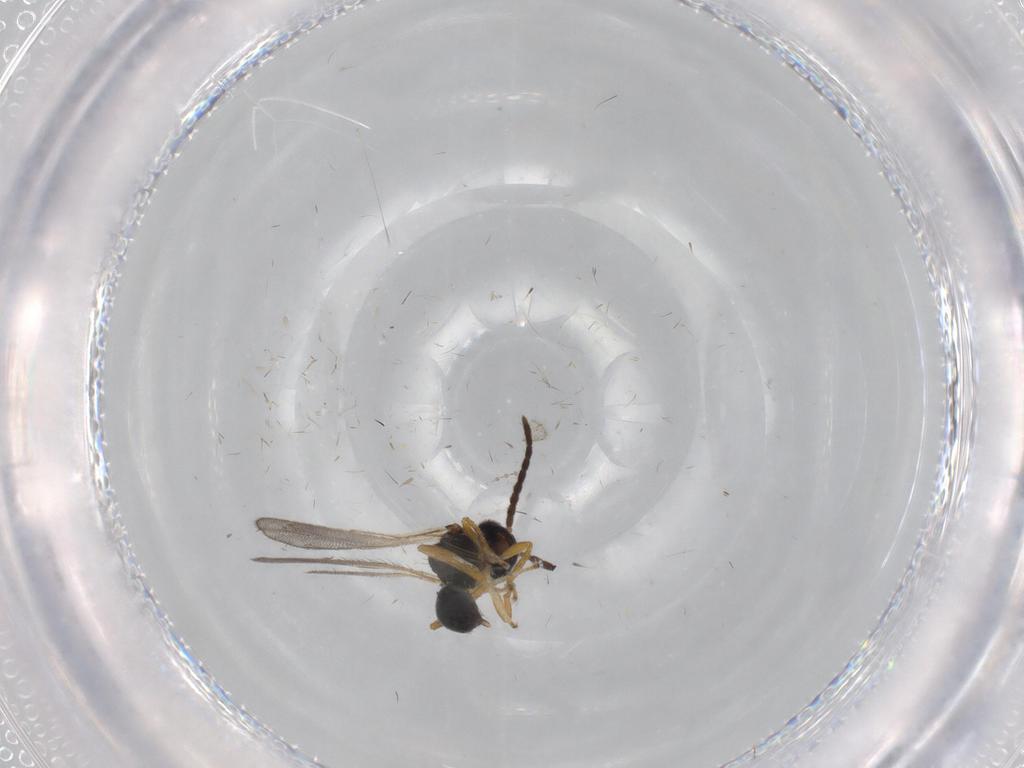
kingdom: Animalia
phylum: Arthropoda
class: Insecta
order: Hymenoptera
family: Diparidae
